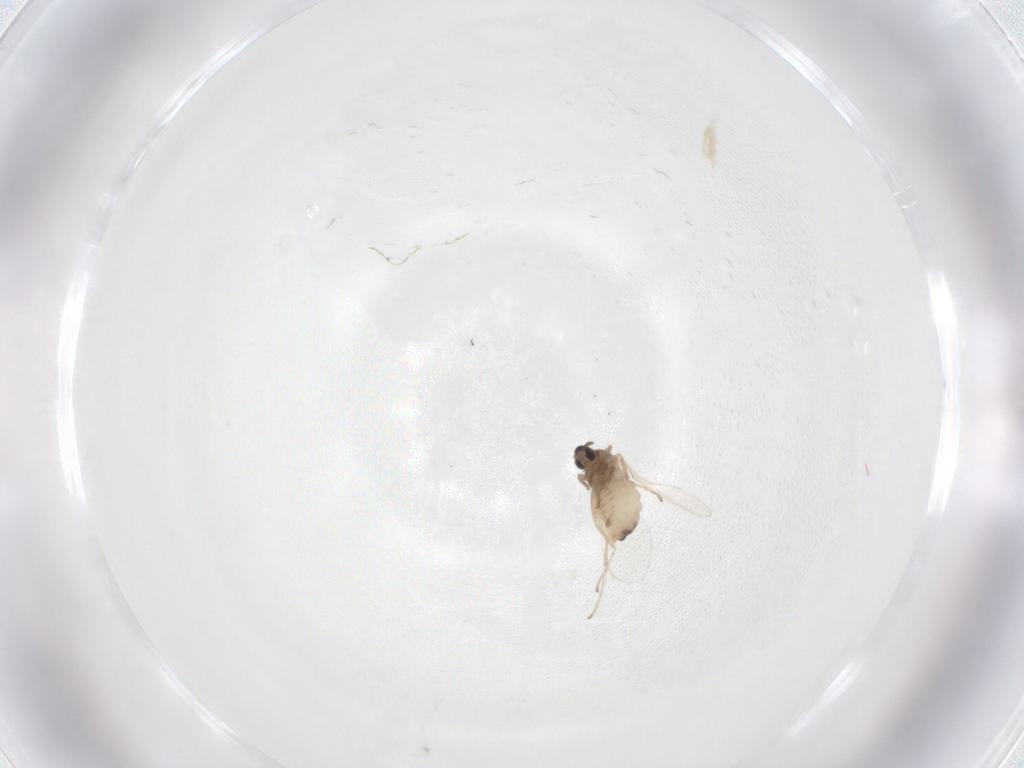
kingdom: Animalia
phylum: Arthropoda
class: Insecta
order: Diptera
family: Cecidomyiidae
